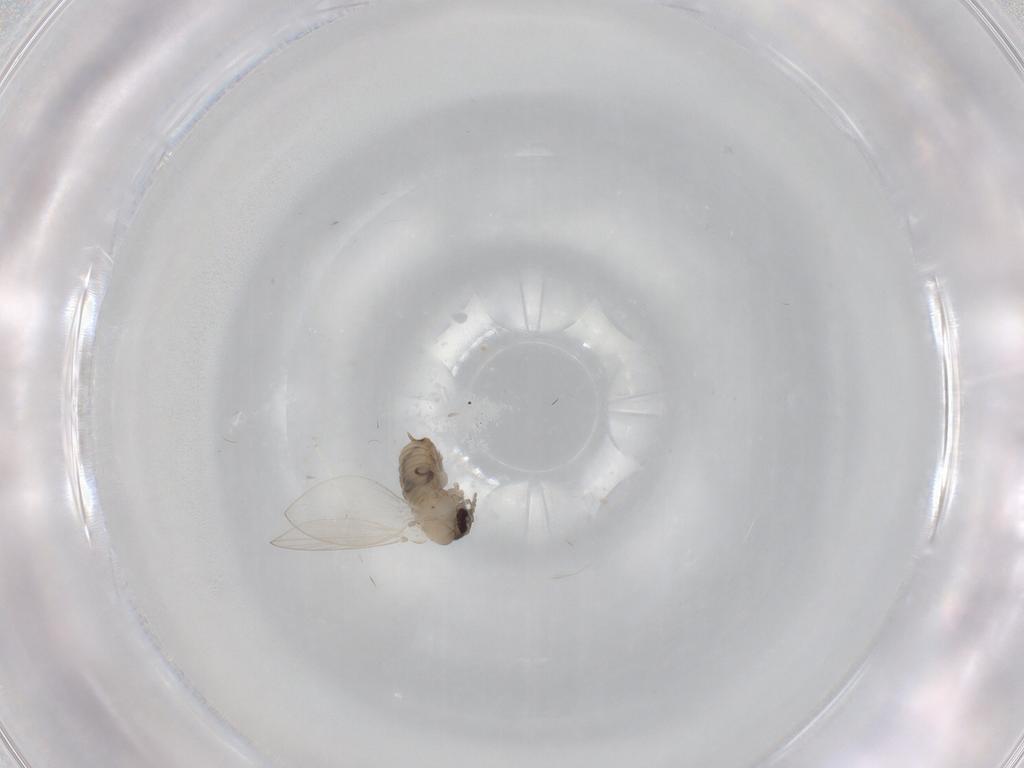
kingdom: Animalia
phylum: Arthropoda
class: Insecta
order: Diptera
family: Psychodidae
